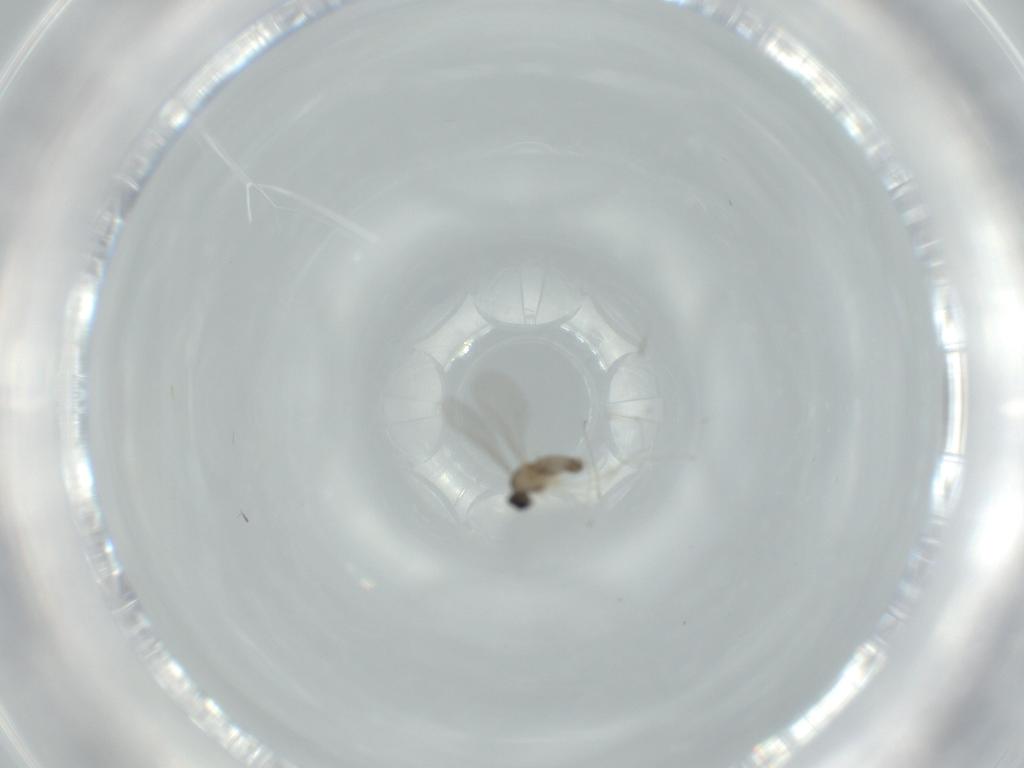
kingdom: Animalia
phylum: Arthropoda
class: Insecta
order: Diptera
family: Cecidomyiidae
